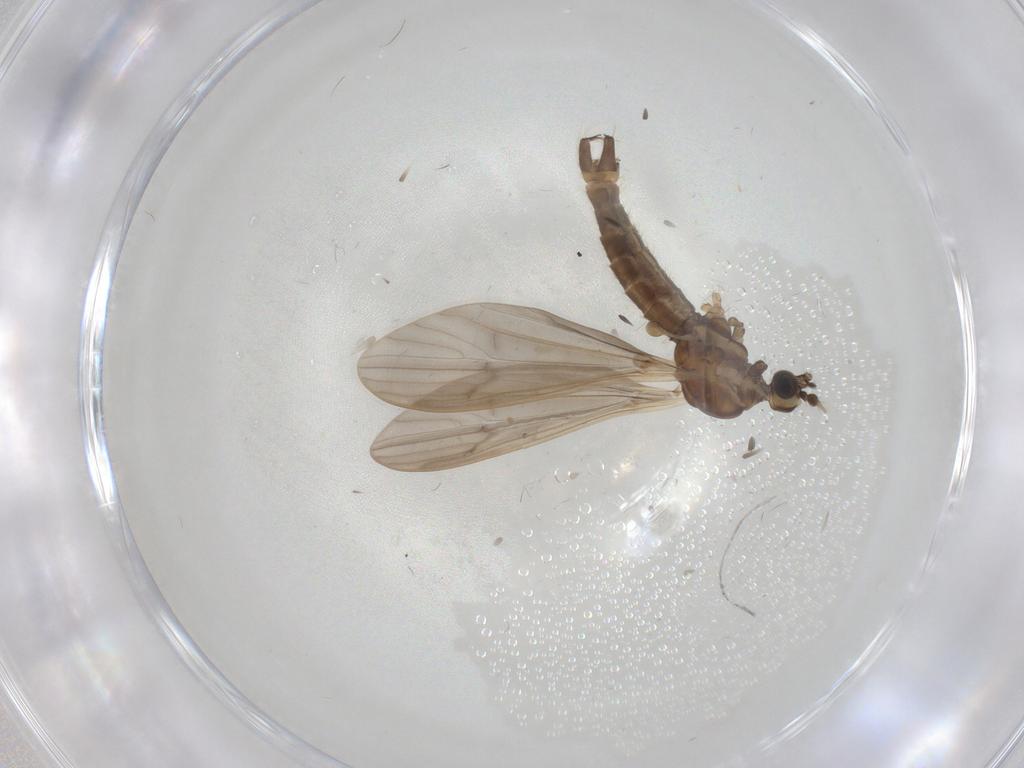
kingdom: Animalia
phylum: Arthropoda
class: Insecta
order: Diptera
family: Limoniidae
